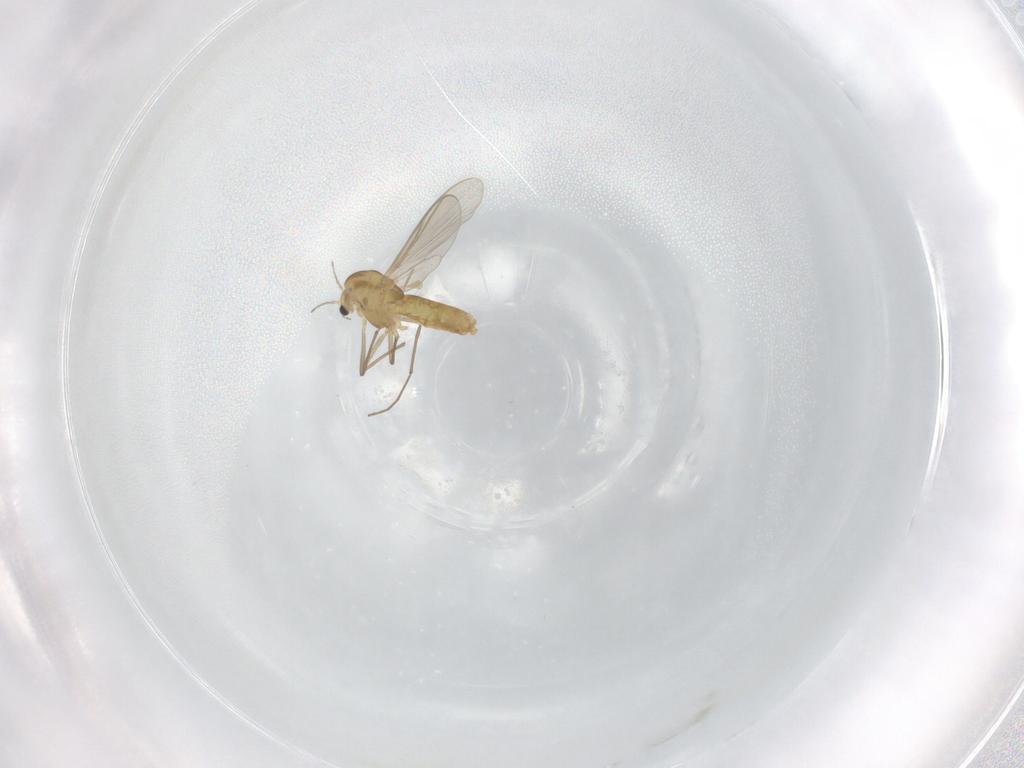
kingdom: Animalia
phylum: Arthropoda
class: Insecta
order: Diptera
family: Chironomidae
